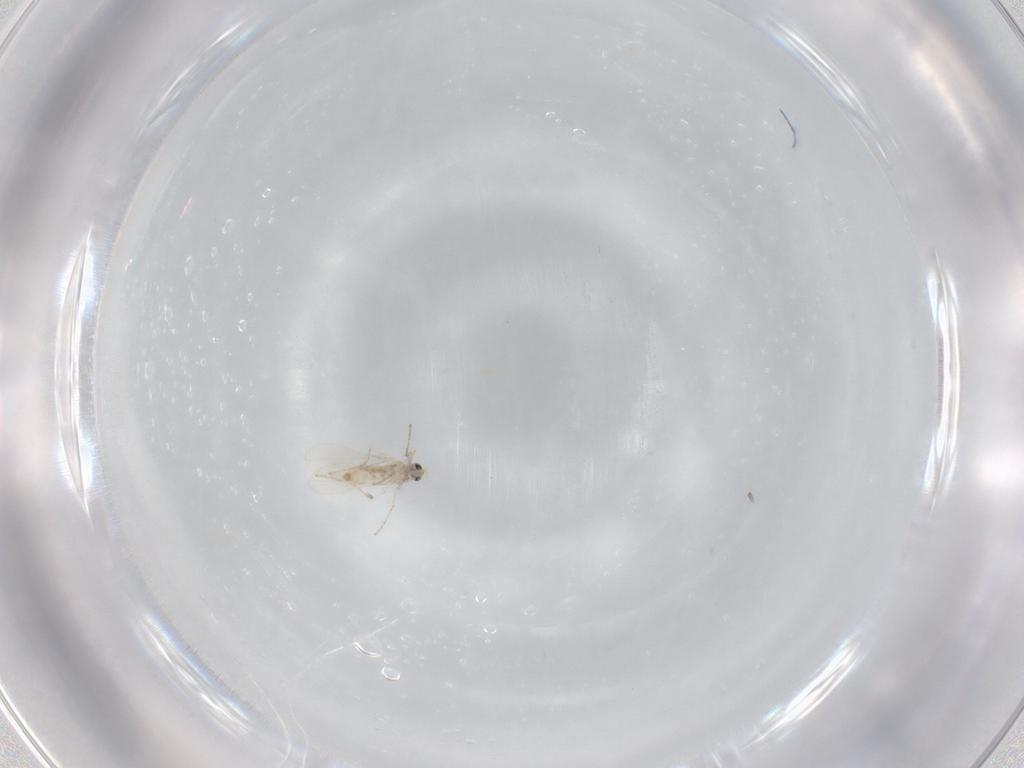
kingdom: Animalia
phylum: Arthropoda
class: Insecta
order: Diptera
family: Cecidomyiidae
